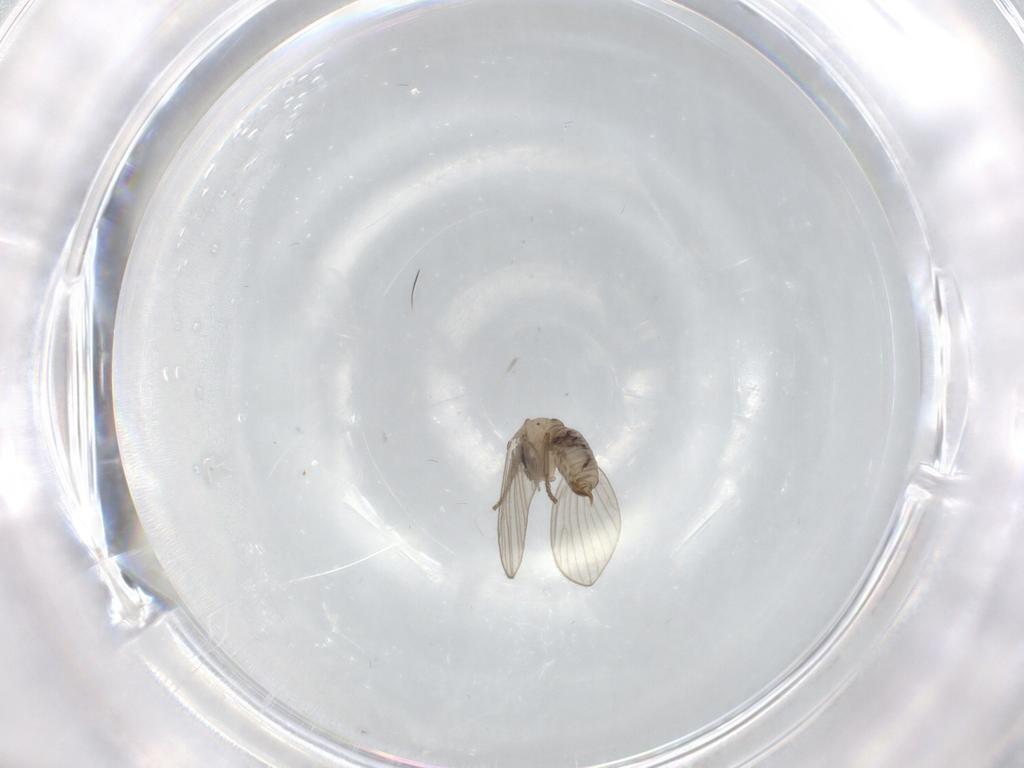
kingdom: Animalia
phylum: Arthropoda
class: Insecta
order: Diptera
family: Psychodidae
